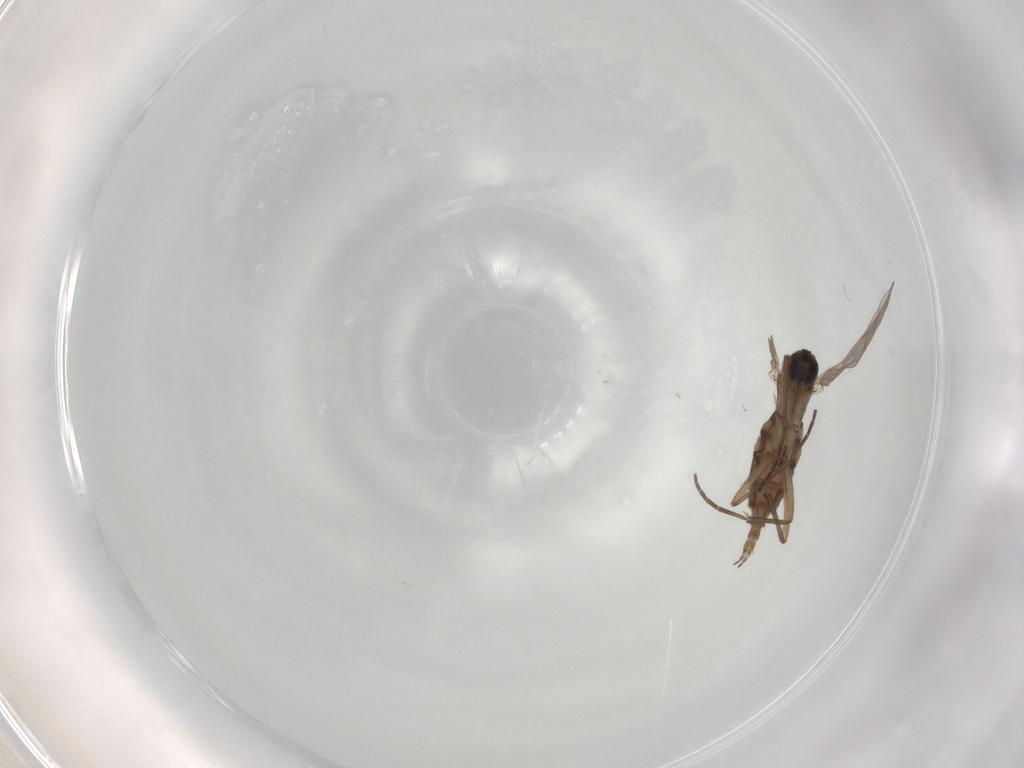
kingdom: Animalia
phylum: Arthropoda
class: Insecta
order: Diptera
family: Sciaridae
